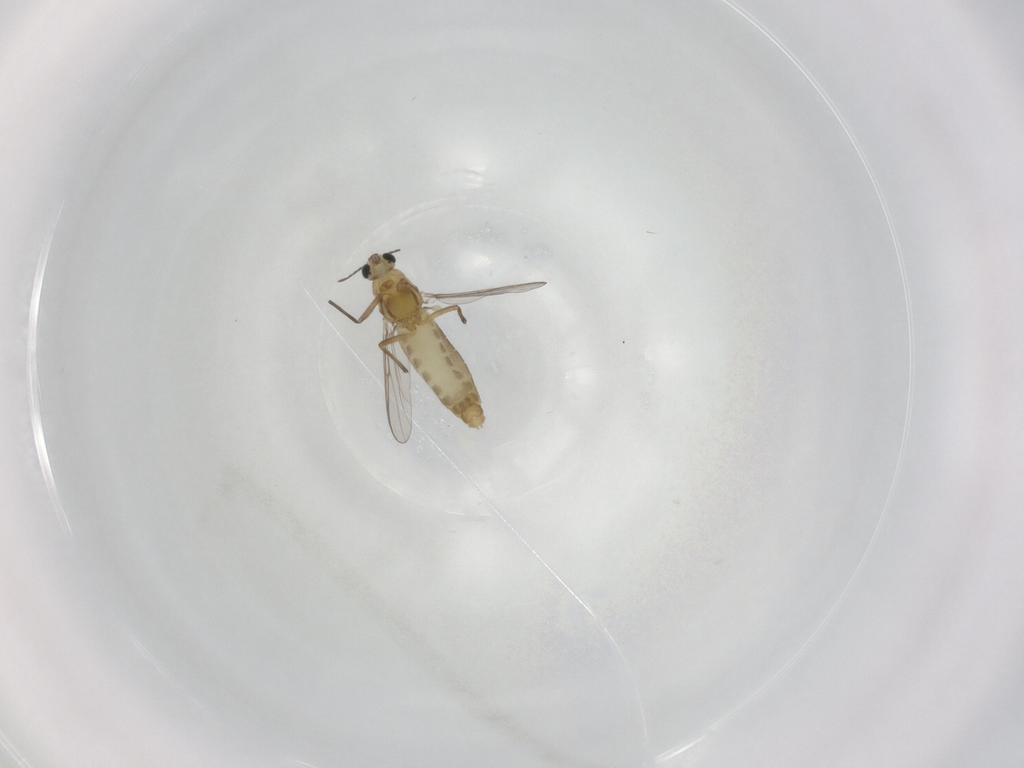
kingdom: Animalia
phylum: Arthropoda
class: Insecta
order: Diptera
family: Chironomidae
